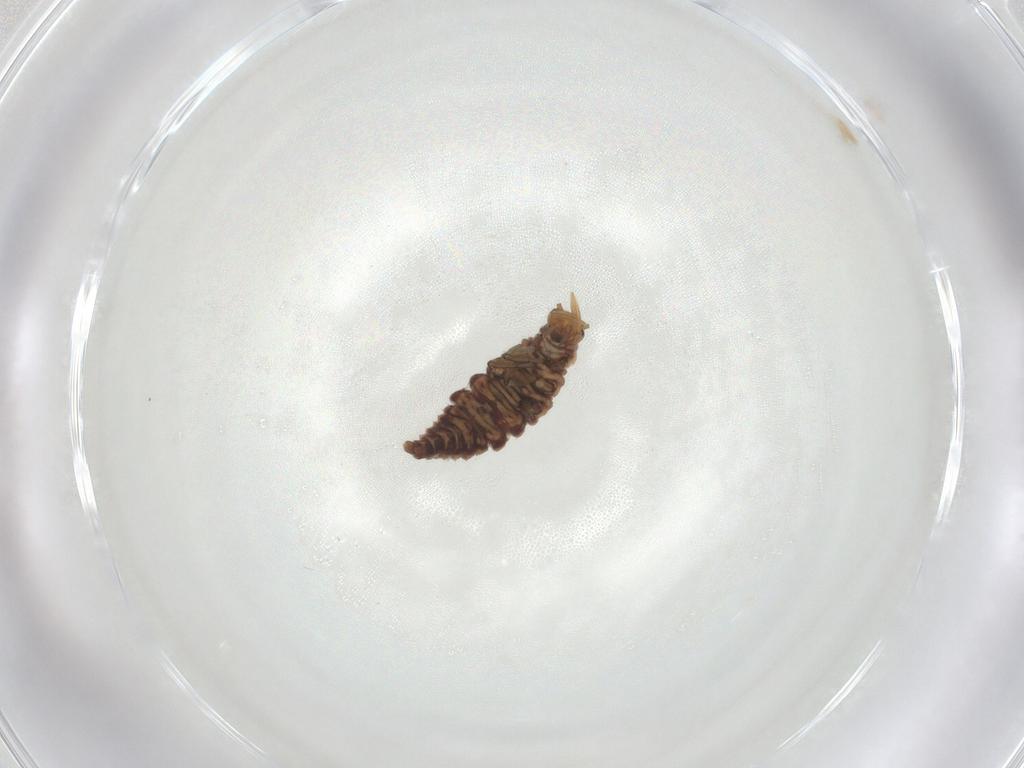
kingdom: Animalia
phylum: Arthropoda
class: Insecta
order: Neuroptera
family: Hemerobiidae
